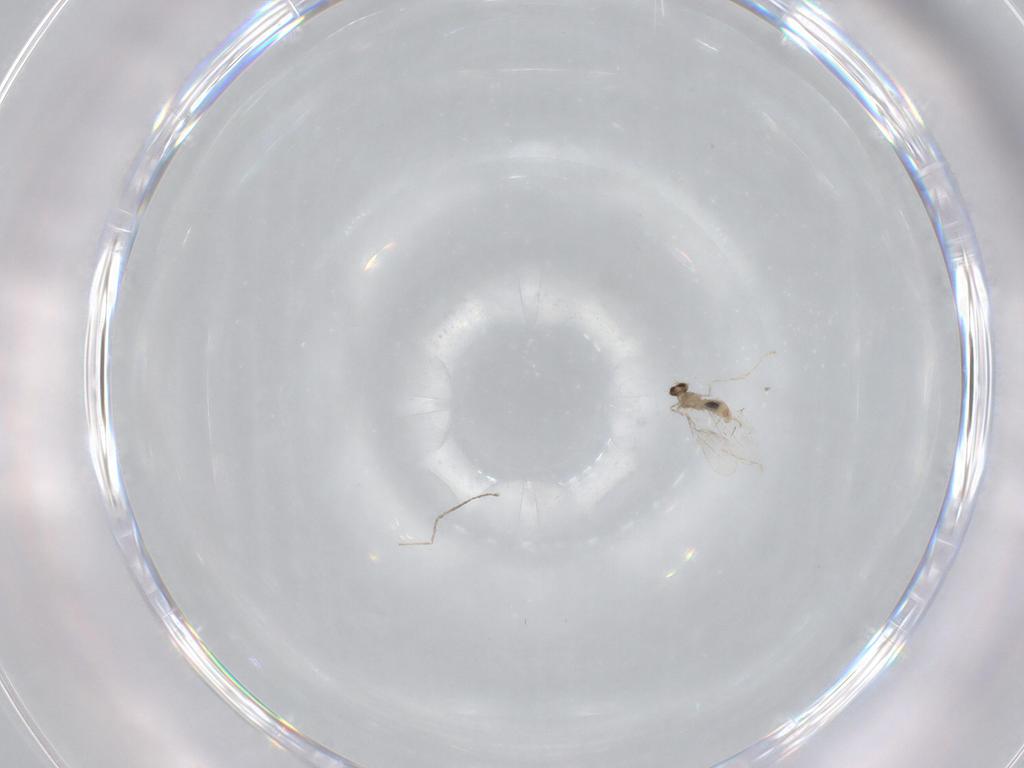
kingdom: Animalia
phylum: Arthropoda
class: Insecta
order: Diptera
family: Cecidomyiidae
